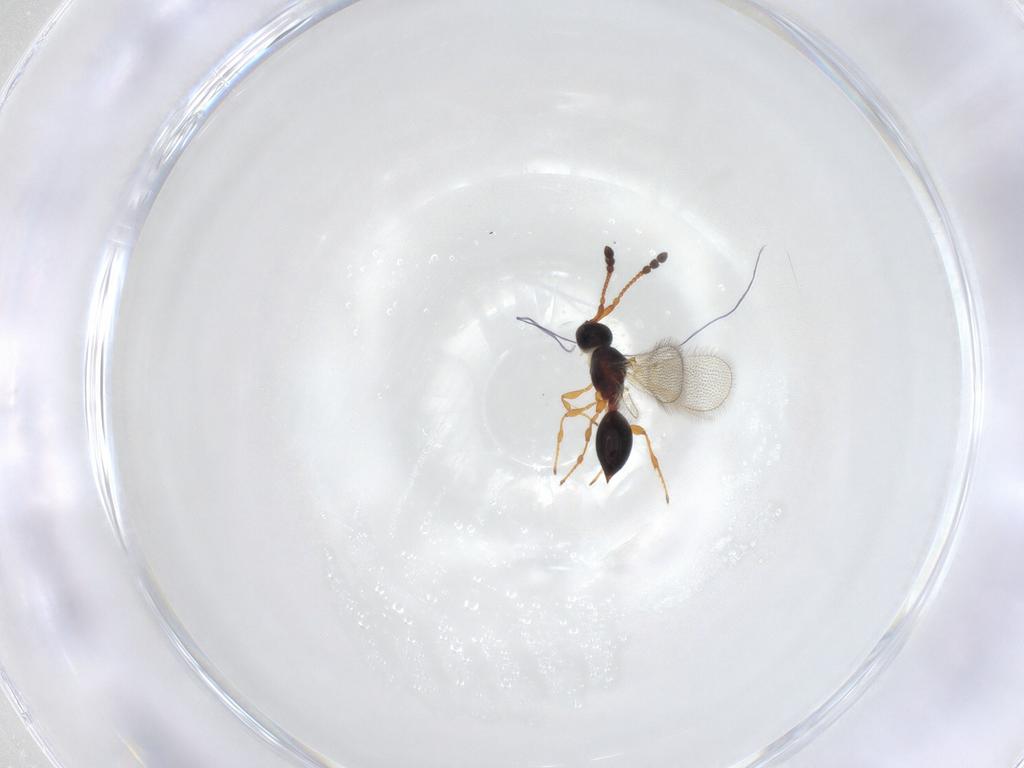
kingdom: Animalia
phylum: Arthropoda
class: Insecta
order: Hymenoptera
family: Diapriidae
